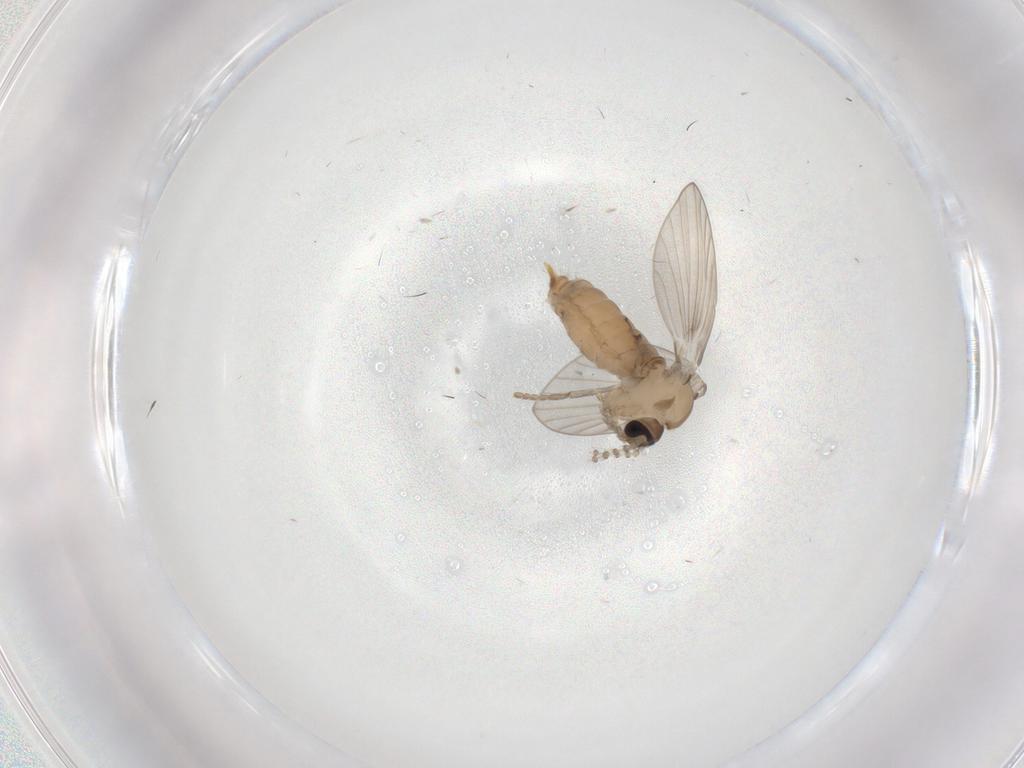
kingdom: Animalia
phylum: Arthropoda
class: Insecta
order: Diptera
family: Psychodidae
